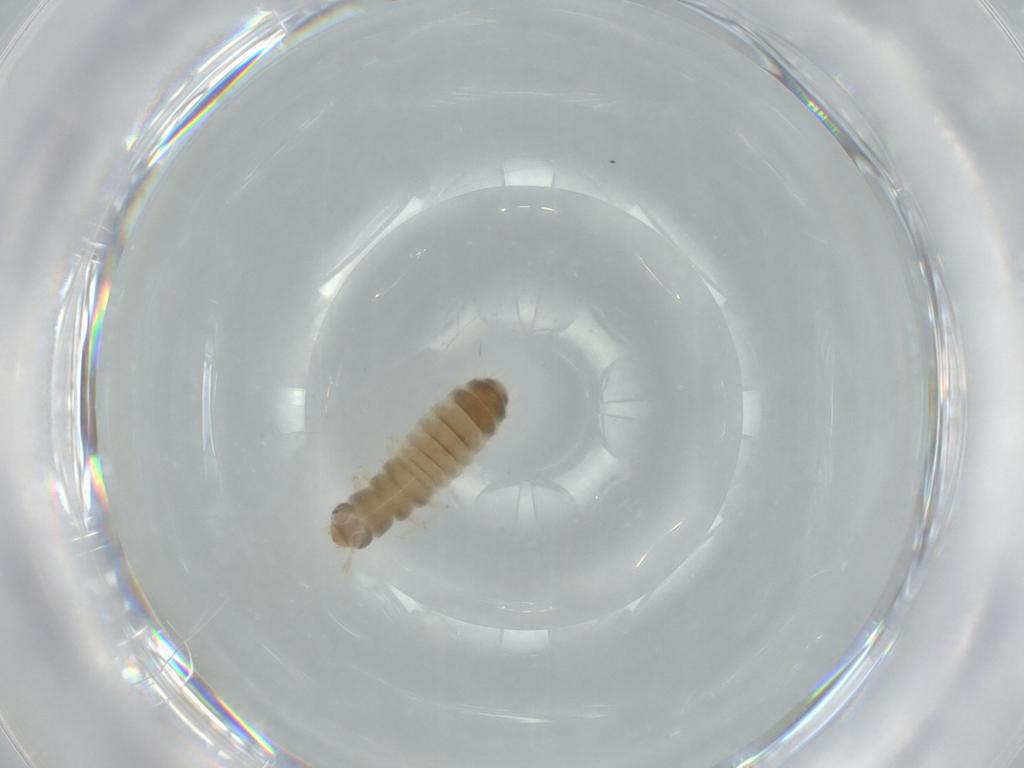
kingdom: Animalia
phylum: Arthropoda
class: Insecta
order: Coleoptera
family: Silvanidae
